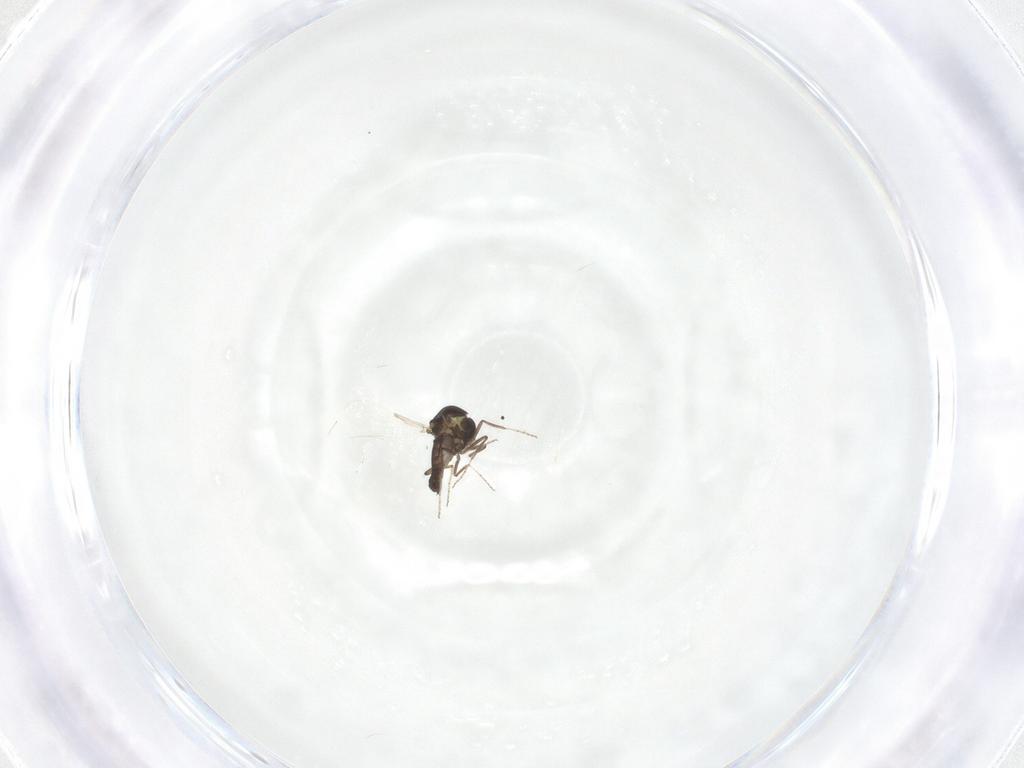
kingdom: Animalia
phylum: Arthropoda
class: Insecta
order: Diptera
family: Ceratopogonidae
